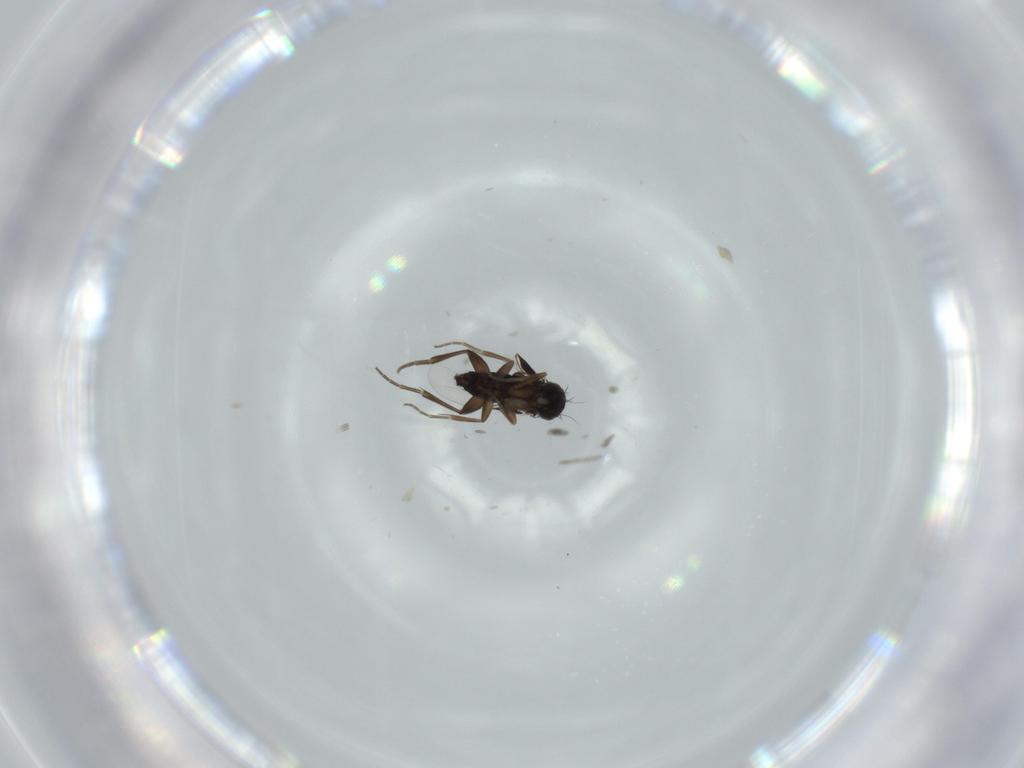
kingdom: Animalia
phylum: Arthropoda
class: Insecta
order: Diptera
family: Phoridae
